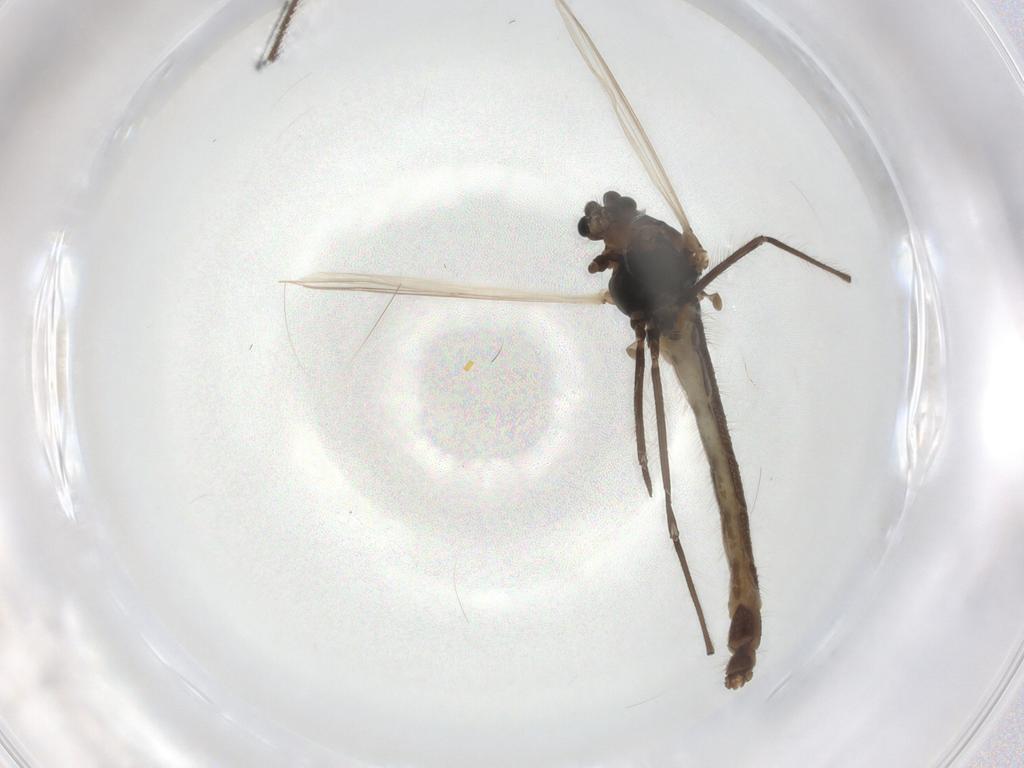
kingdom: Animalia
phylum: Arthropoda
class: Insecta
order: Diptera
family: Chironomidae
